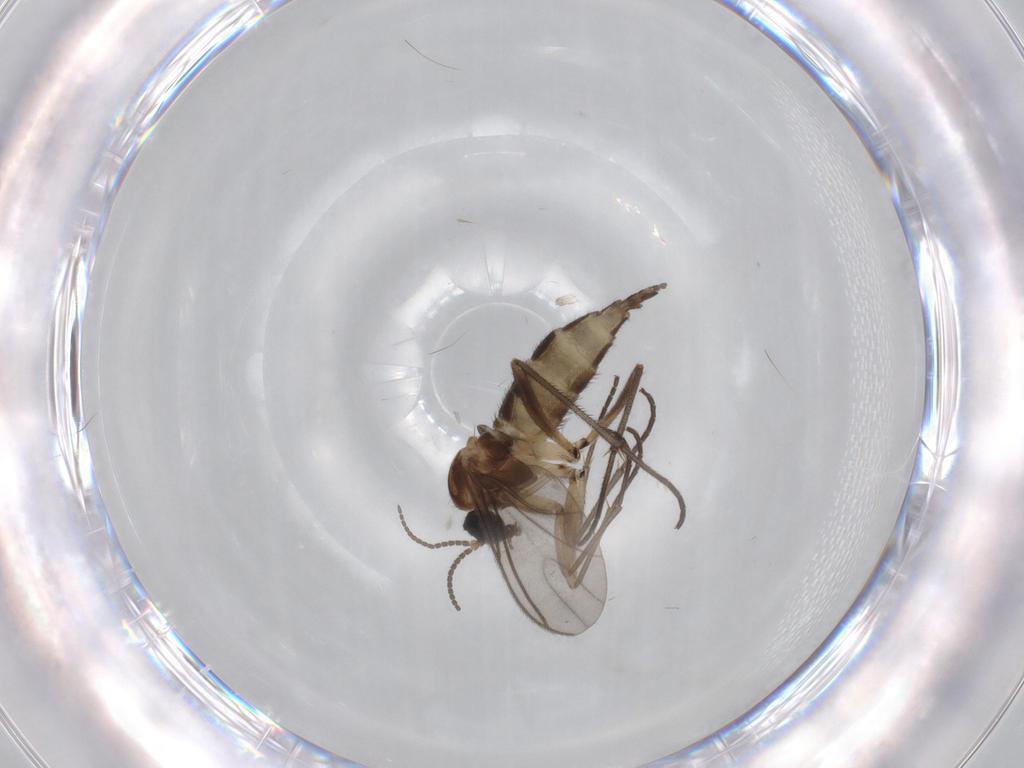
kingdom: Animalia
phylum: Arthropoda
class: Insecta
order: Diptera
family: Sciaridae
